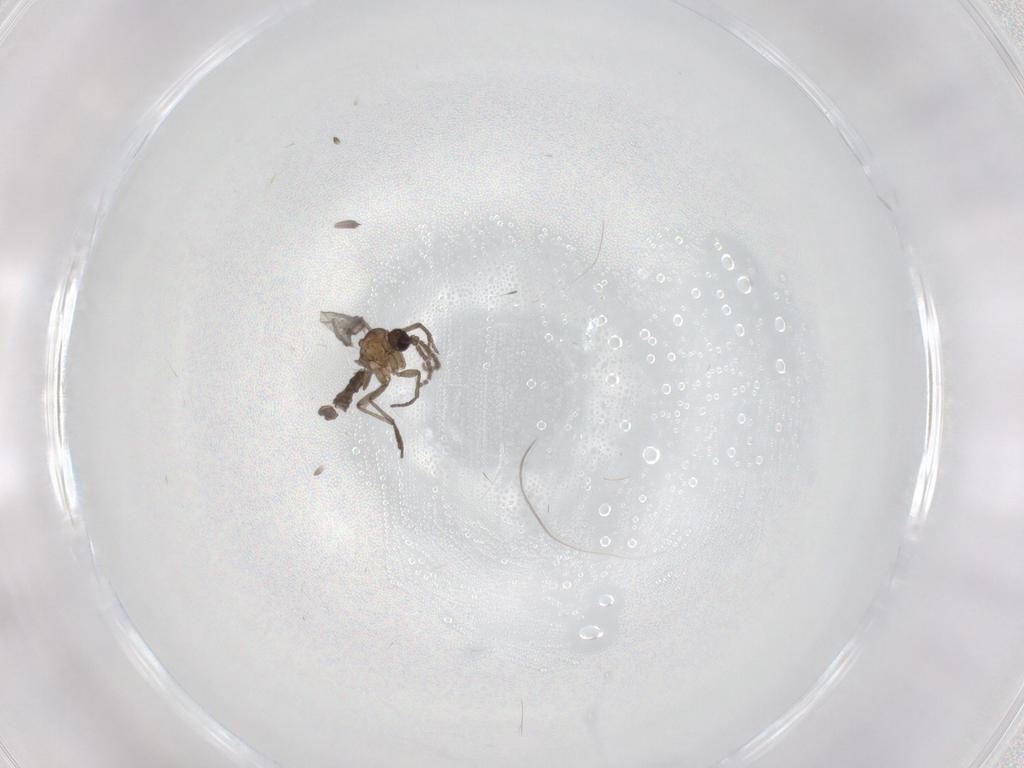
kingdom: Animalia
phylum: Arthropoda
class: Insecta
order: Diptera
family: Sciaridae
